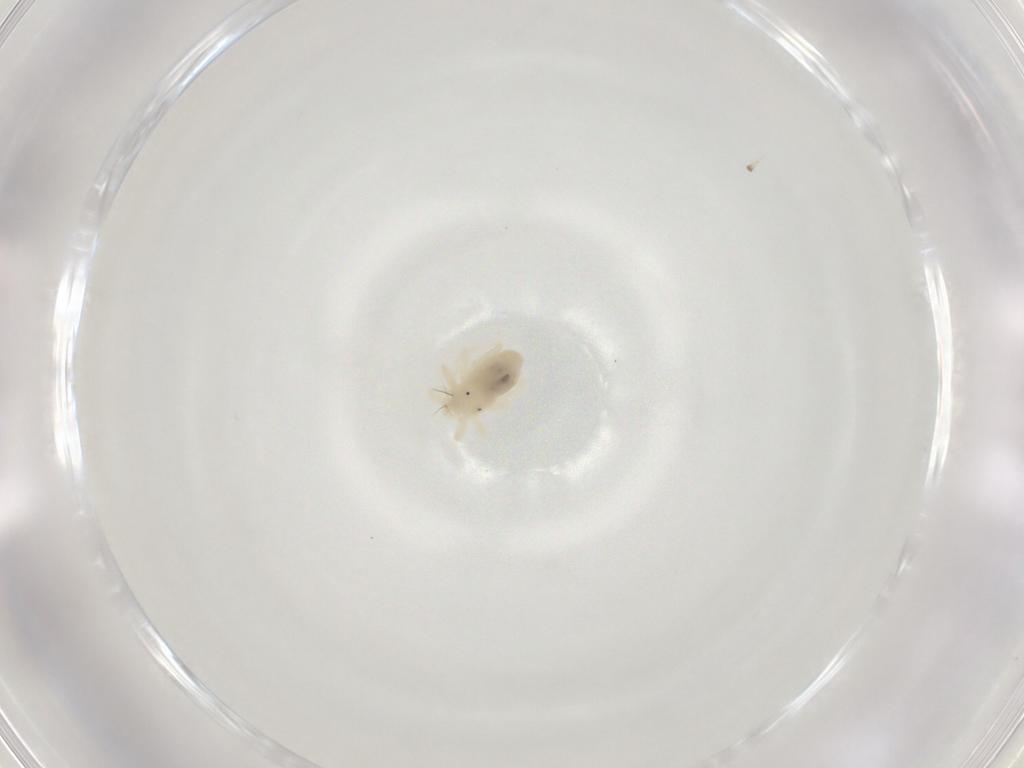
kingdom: Animalia
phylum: Arthropoda
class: Arachnida
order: Trombidiformes
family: Anystidae
